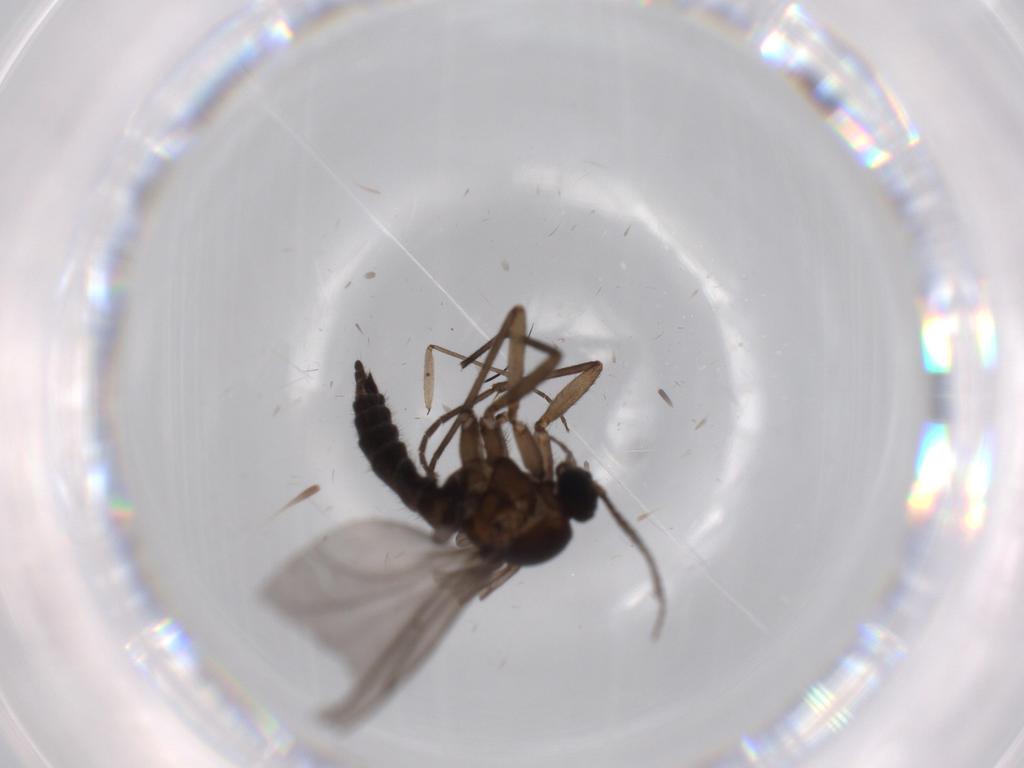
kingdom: Animalia
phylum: Arthropoda
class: Insecta
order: Diptera
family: Sciaridae
